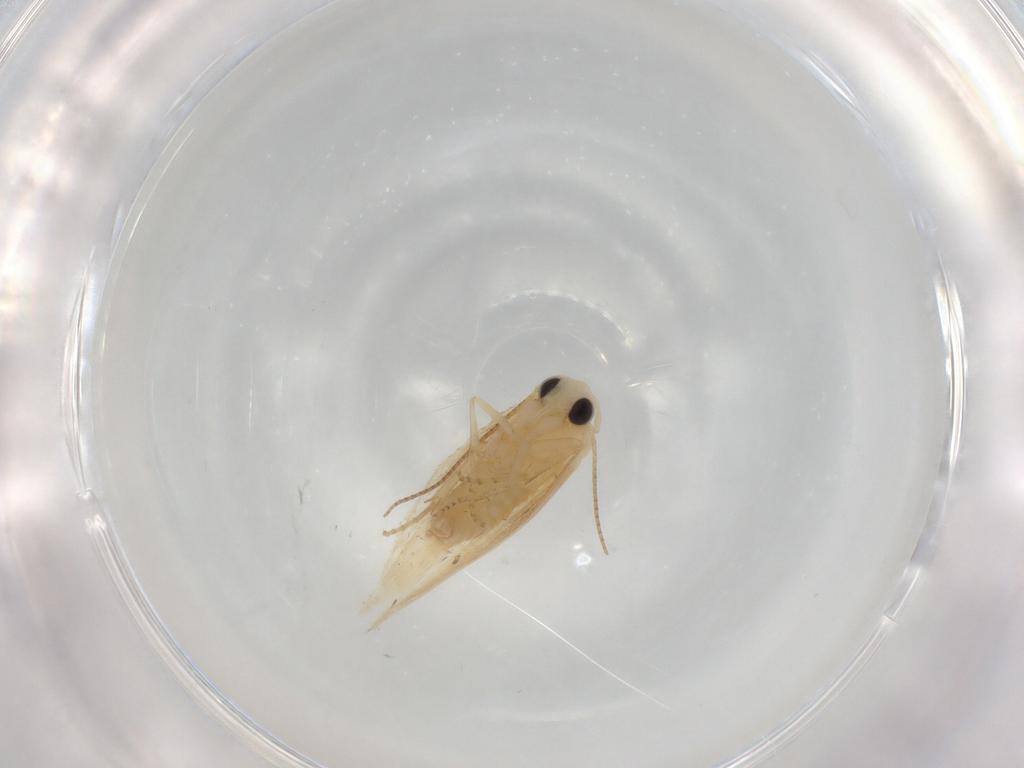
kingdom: Animalia
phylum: Arthropoda
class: Insecta
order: Lepidoptera
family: Bucculatricidae
